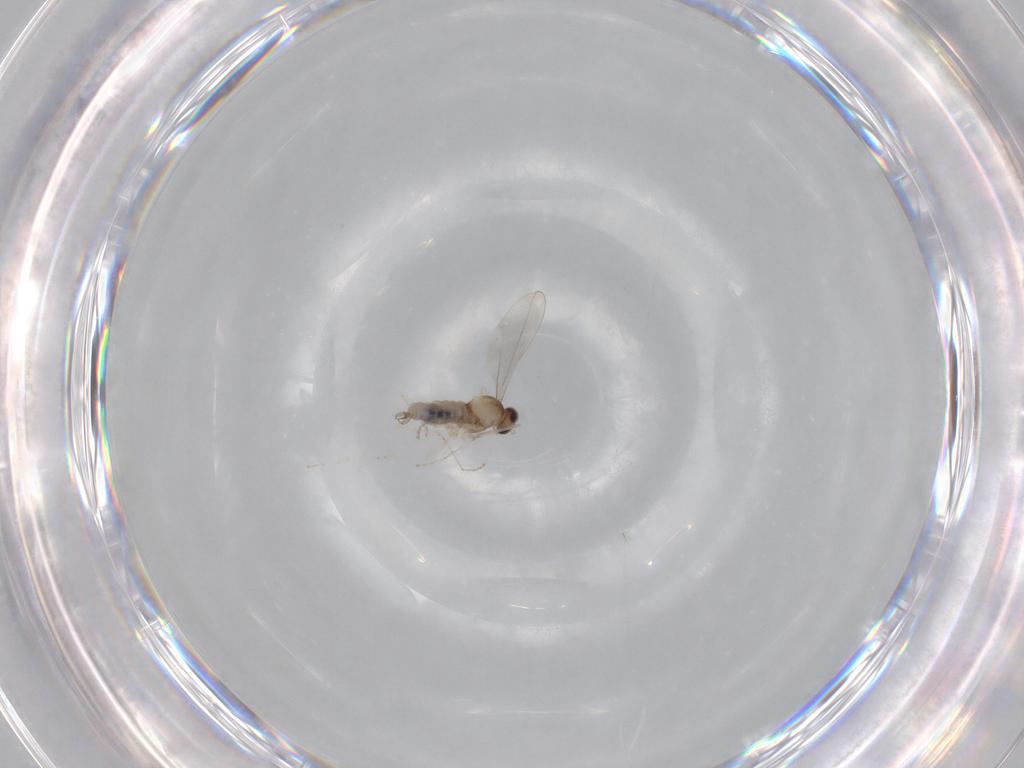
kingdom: Animalia
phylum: Arthropoda
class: Insecta
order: Diptera
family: Cecidomyiidae
